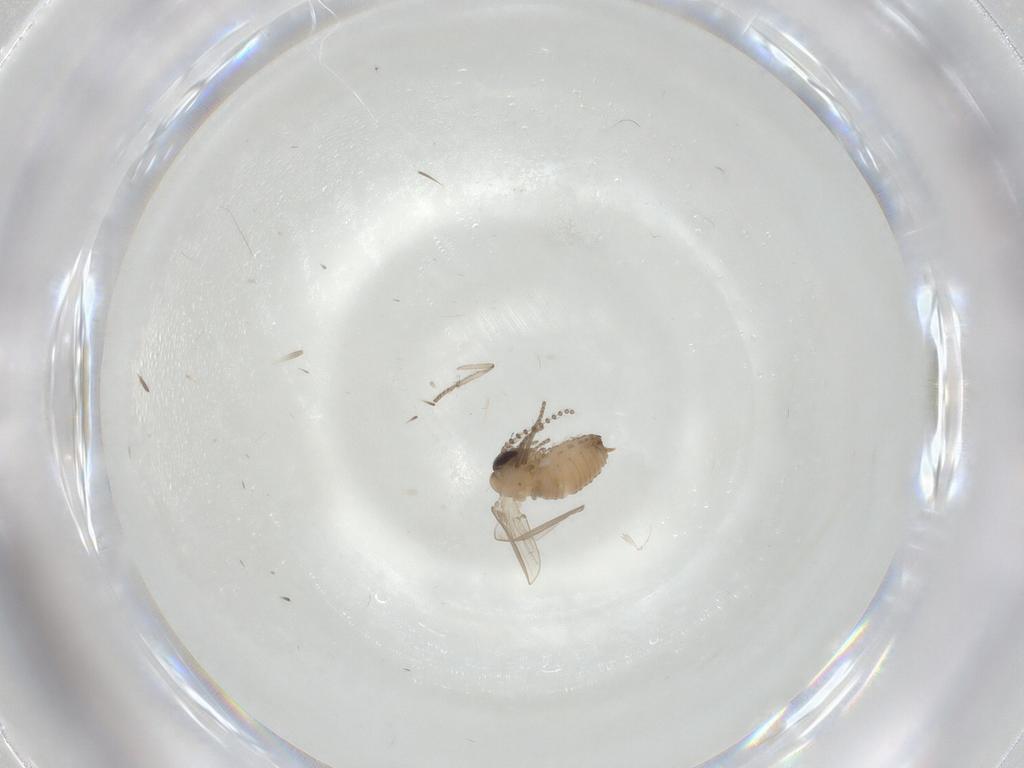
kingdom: Animalia
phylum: Arthropoda
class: Insecta
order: Diptera
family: Psychodidae
